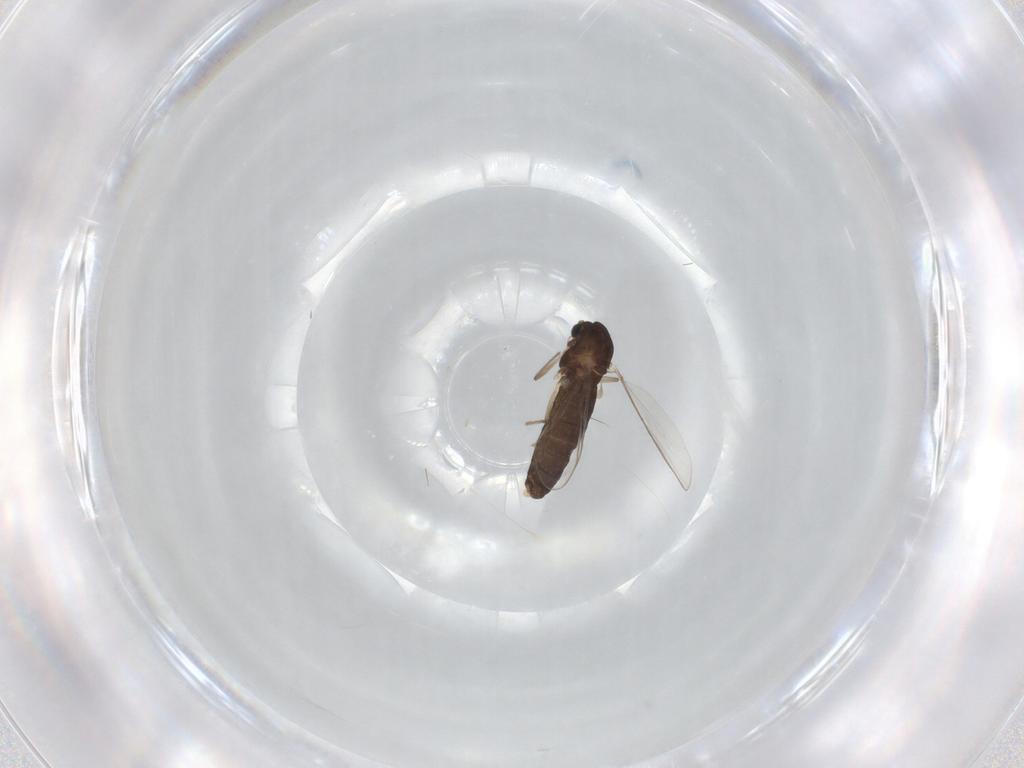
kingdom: Animalia
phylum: Arthropoda
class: Insecta
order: Diptera
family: Chironomidae
